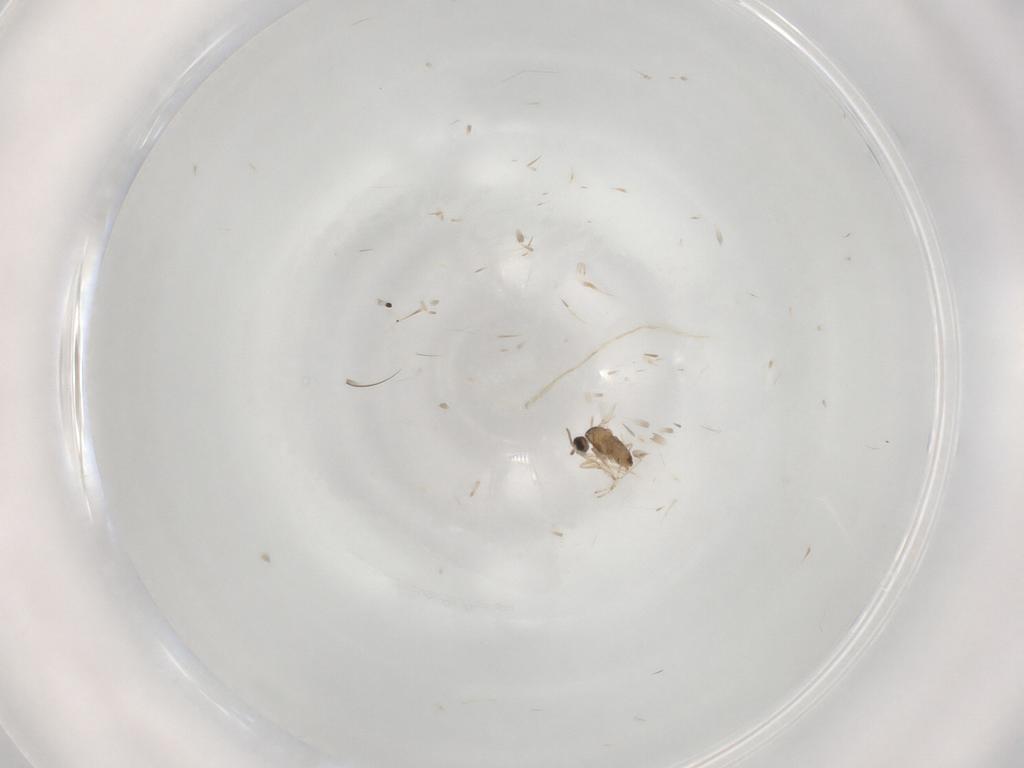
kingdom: Animalia
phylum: Arthropoda
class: Insecta
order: Diptera
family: Cecidomyiidae
